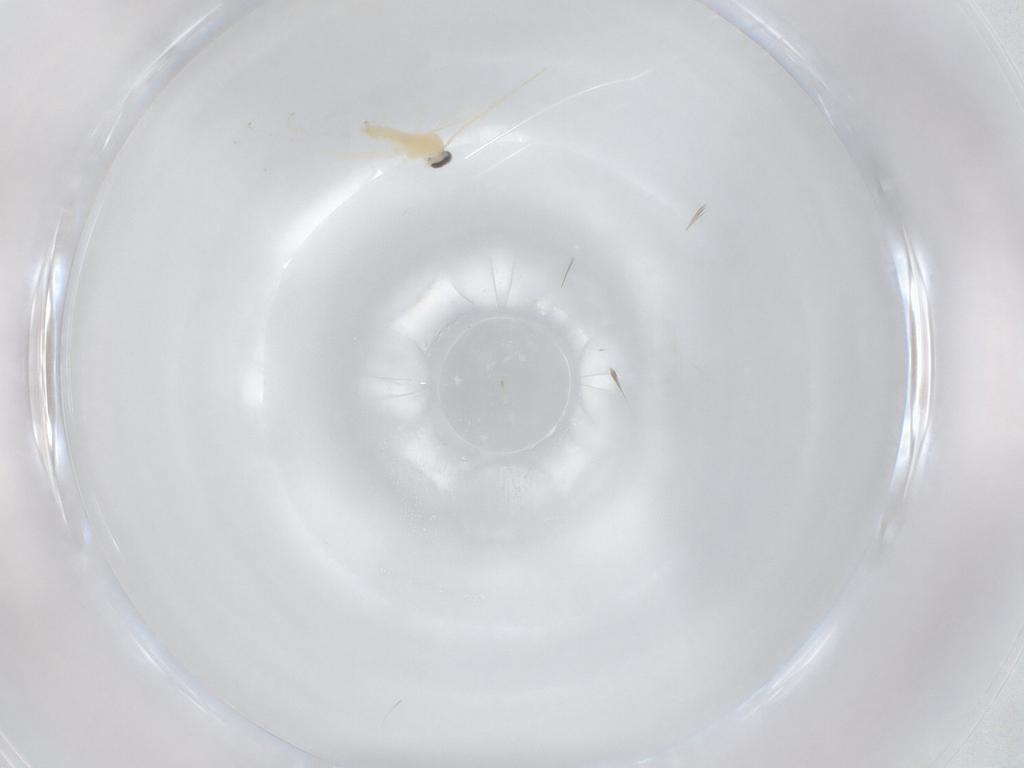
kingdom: Animalia
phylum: Arthropoda
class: Insecta
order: Diptera
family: Cecidomyiidae
